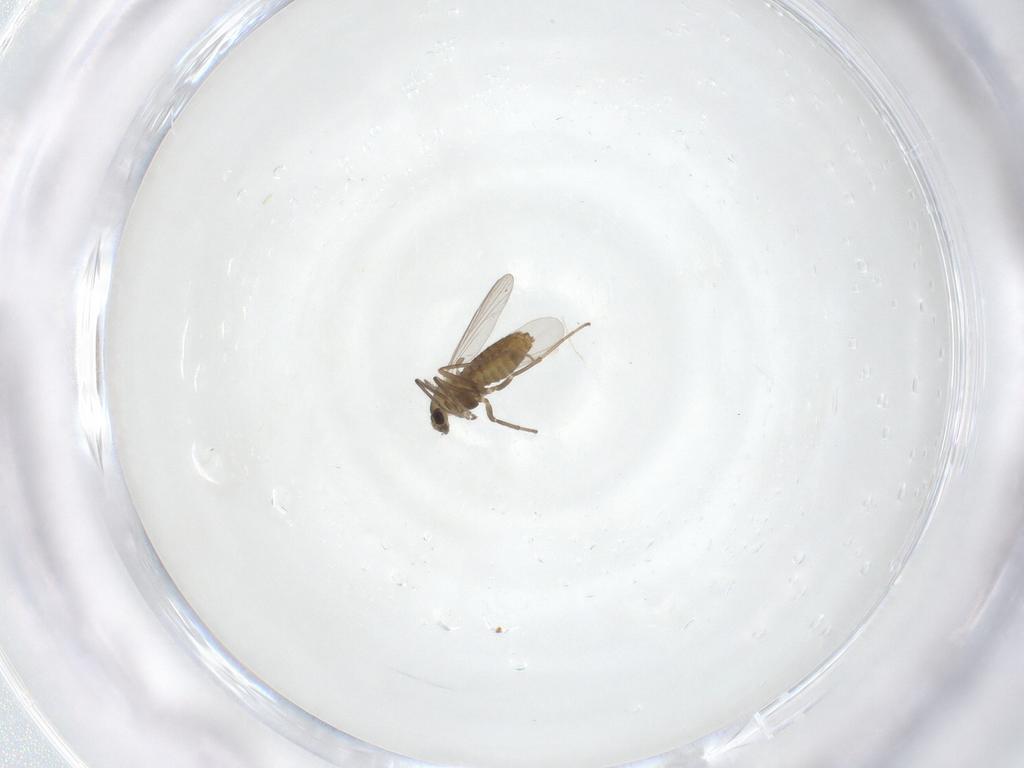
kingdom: Animalia
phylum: Arthropoda
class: Insecta
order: Diptera
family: Chironomidae
